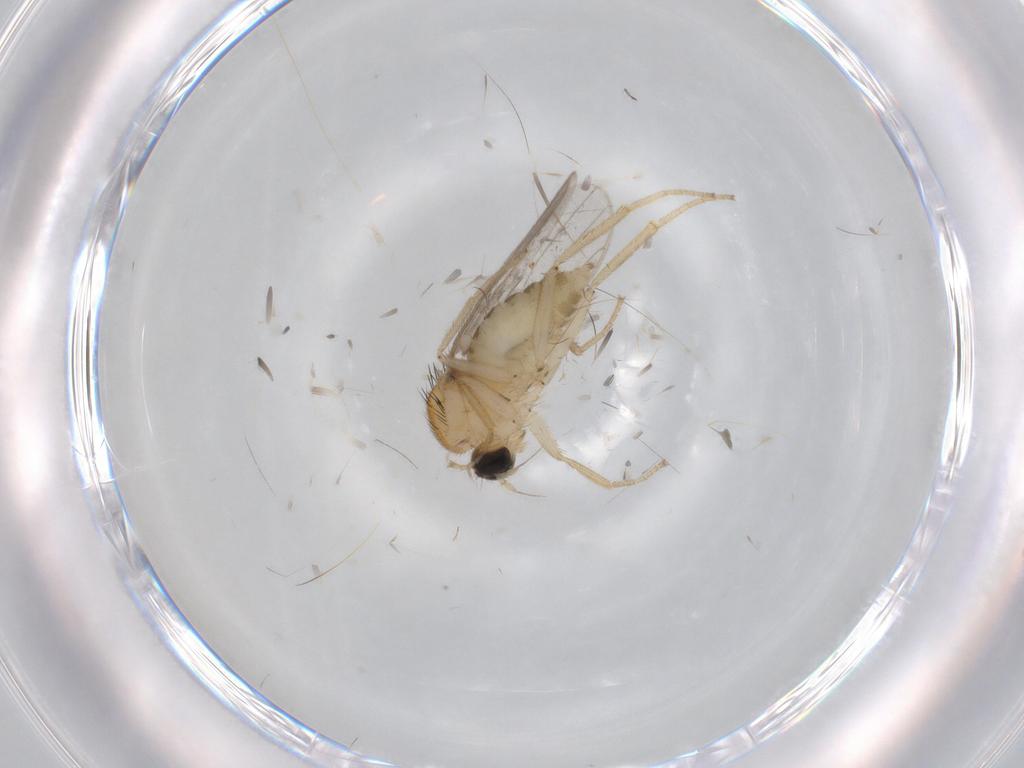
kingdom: Animalia
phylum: Arthropoda
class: Insecta
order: Diptera
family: Hybotidae
